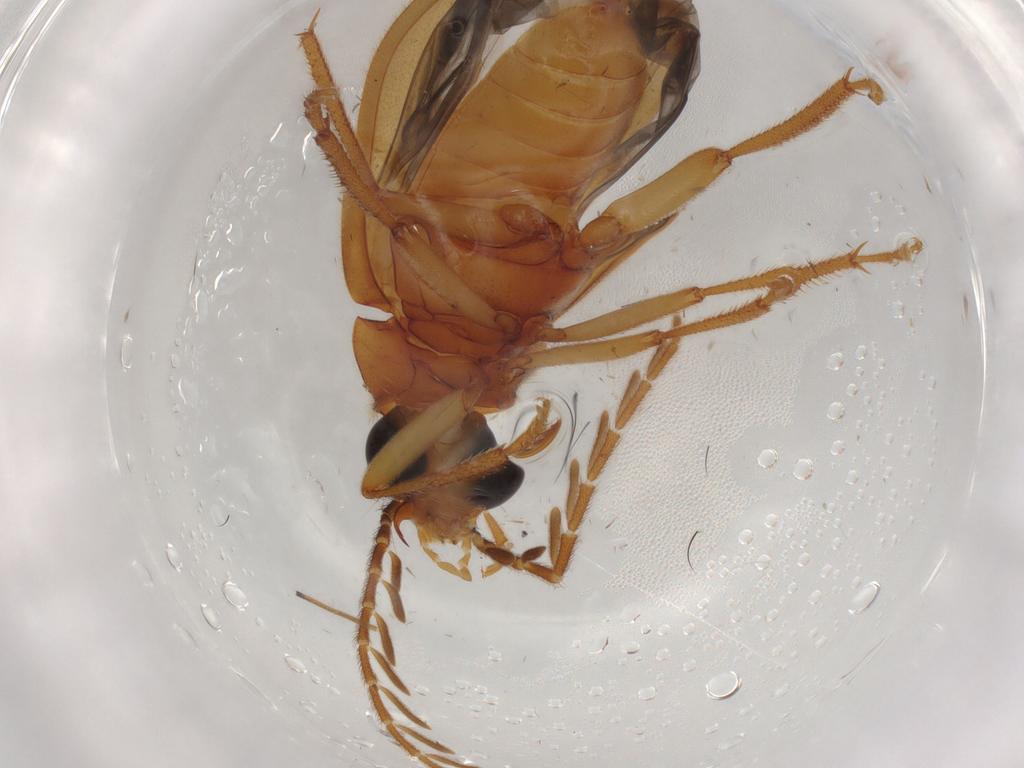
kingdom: Animalia
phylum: Arthropoda
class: Insecta
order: Coleoptera
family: Ptilodactylidae
